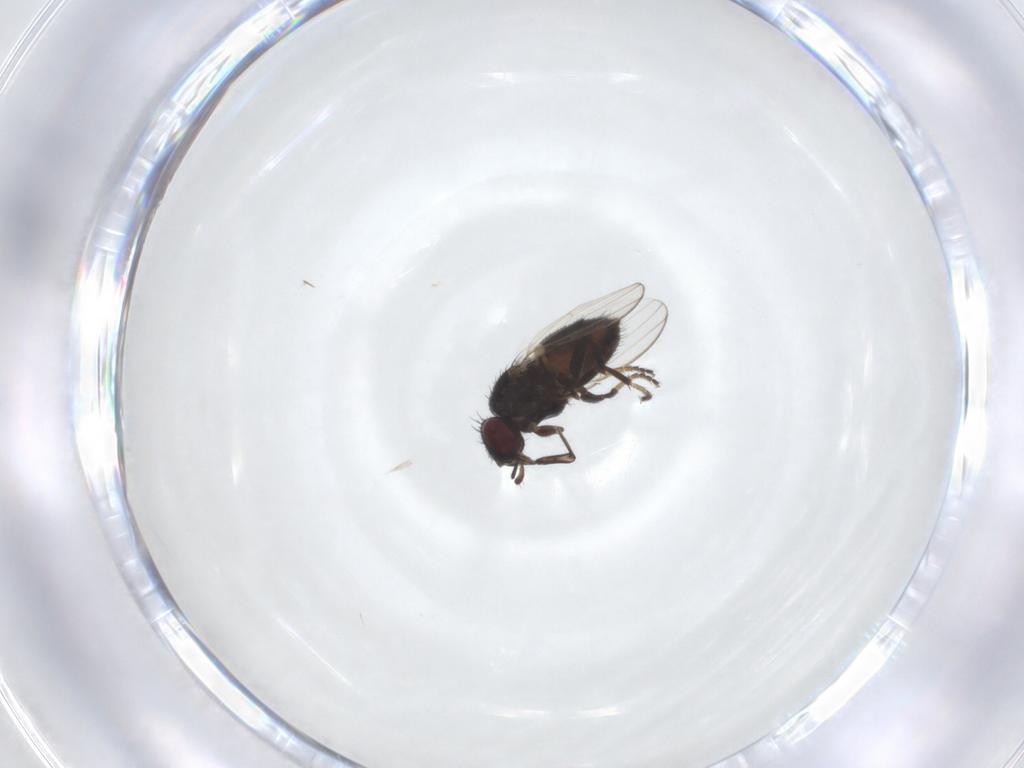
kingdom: Animalia
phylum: Arthropoda
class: Insecta
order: Diptera
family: Milichiidae
